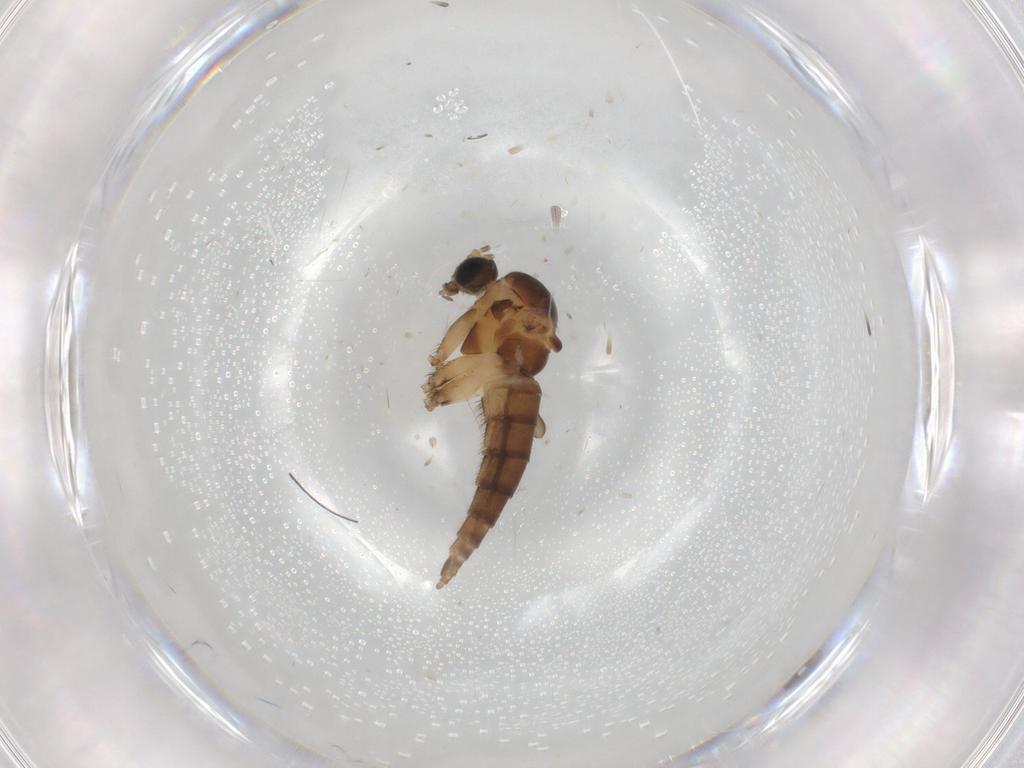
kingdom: Animalia
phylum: Arthropoda
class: Insecta
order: Diptera
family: Sciaridae
